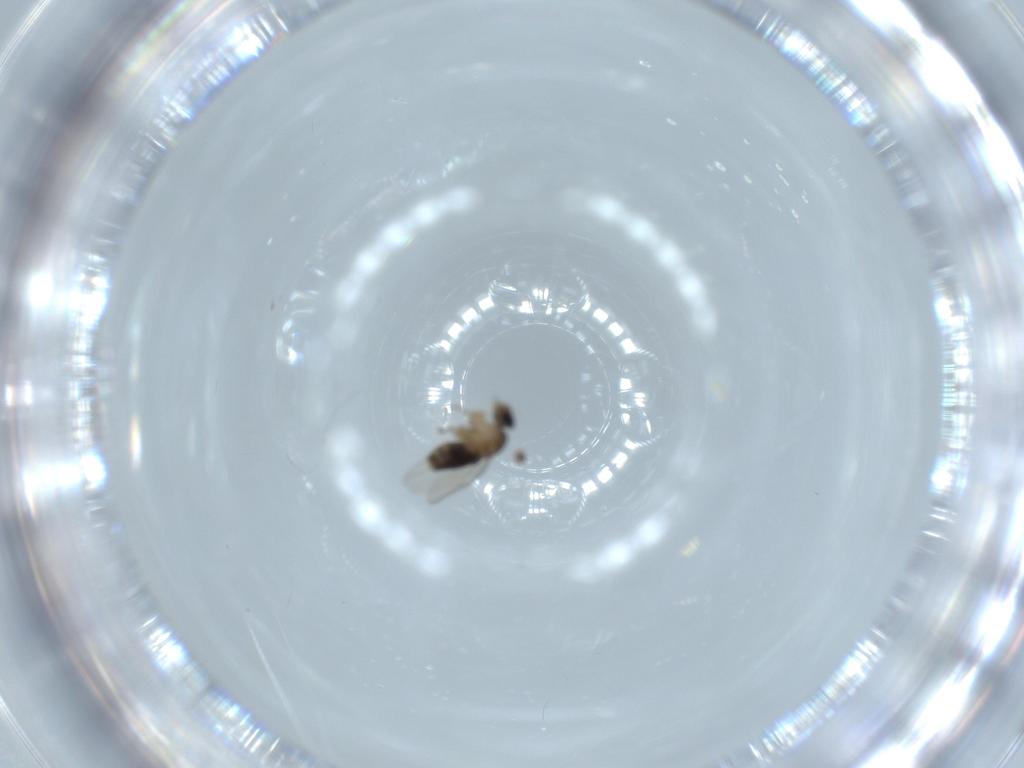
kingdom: Animalia
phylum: Arthropoda
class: Insecta
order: Diptera
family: Phoridae
